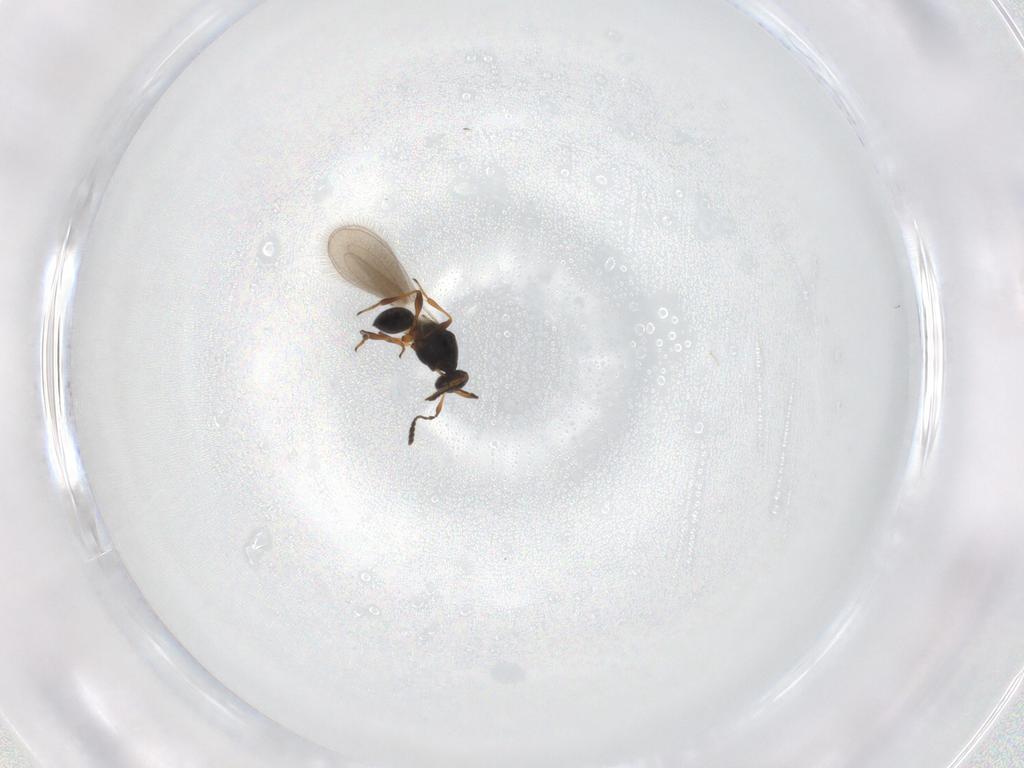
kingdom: Animalia
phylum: Arthropoda
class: Insecta
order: Hymenoptera
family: Platygastridae
